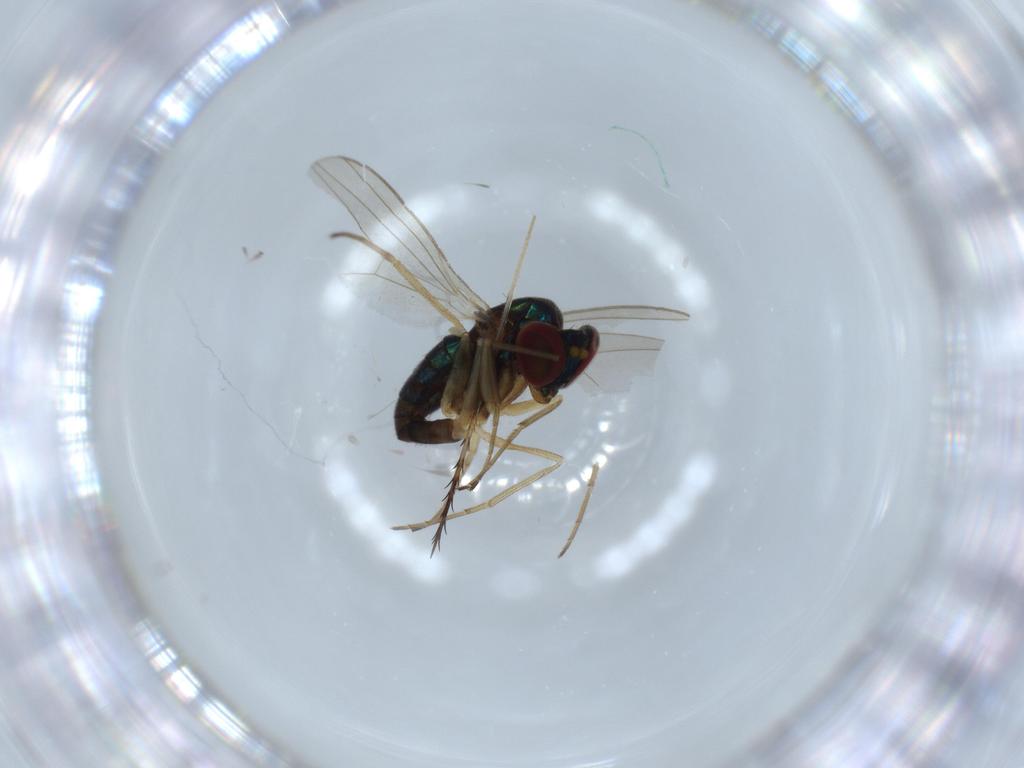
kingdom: Animalia
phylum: Arthropoda
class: Insecta
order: Diptera
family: Dolichopodidae
